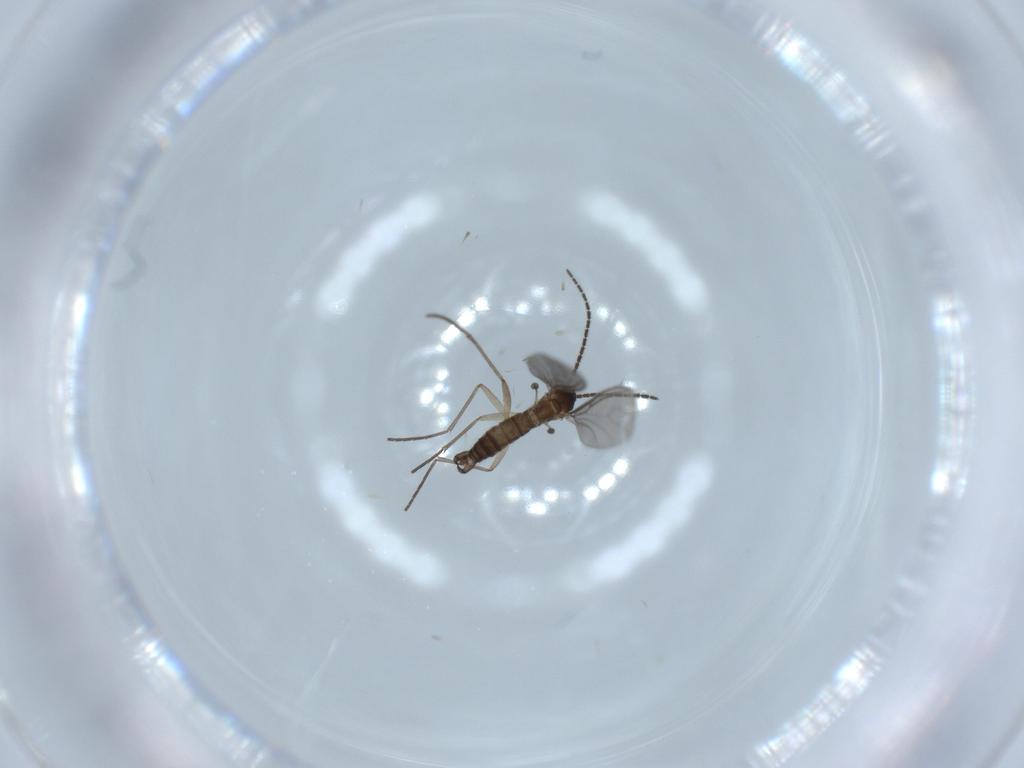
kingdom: Animalia
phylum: Arthropoda
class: Insecta
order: Diptera
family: Sciaridae
